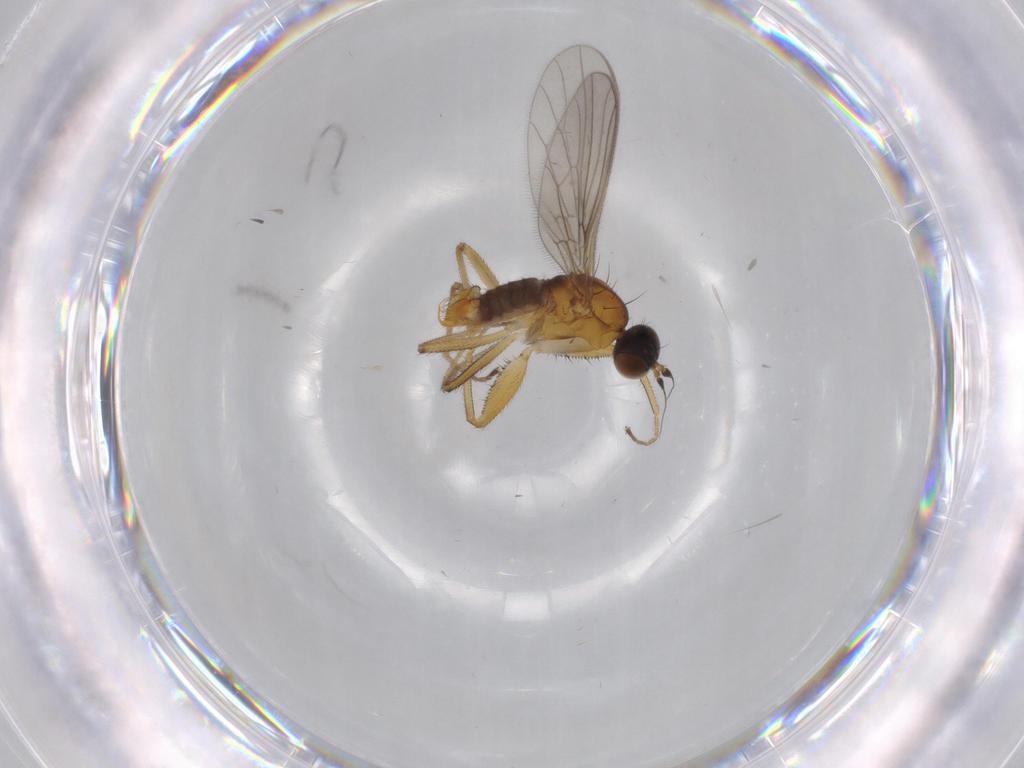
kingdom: Animalia
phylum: Arthropoda
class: Insecta
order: Diptera
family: Empididae
